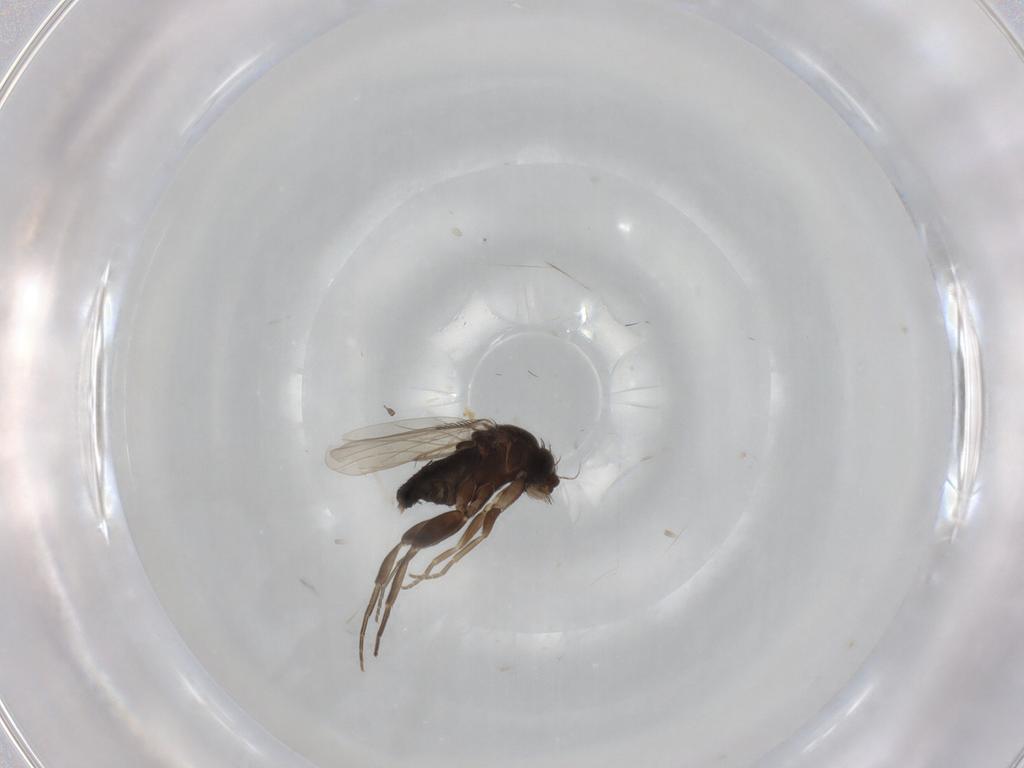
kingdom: Animalia
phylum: Arthropoda
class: Insecta
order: Diptera
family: Phoridae
